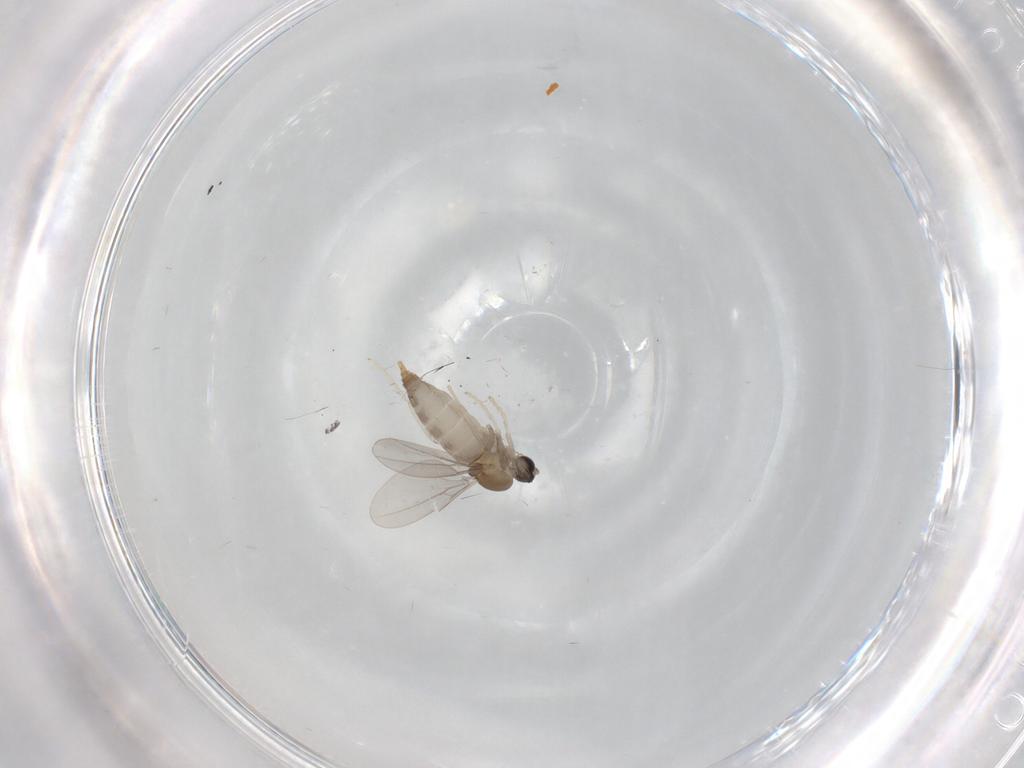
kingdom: Animalia
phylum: Arthropoda
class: Insecta
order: Diptera
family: Cecidomyiidae
